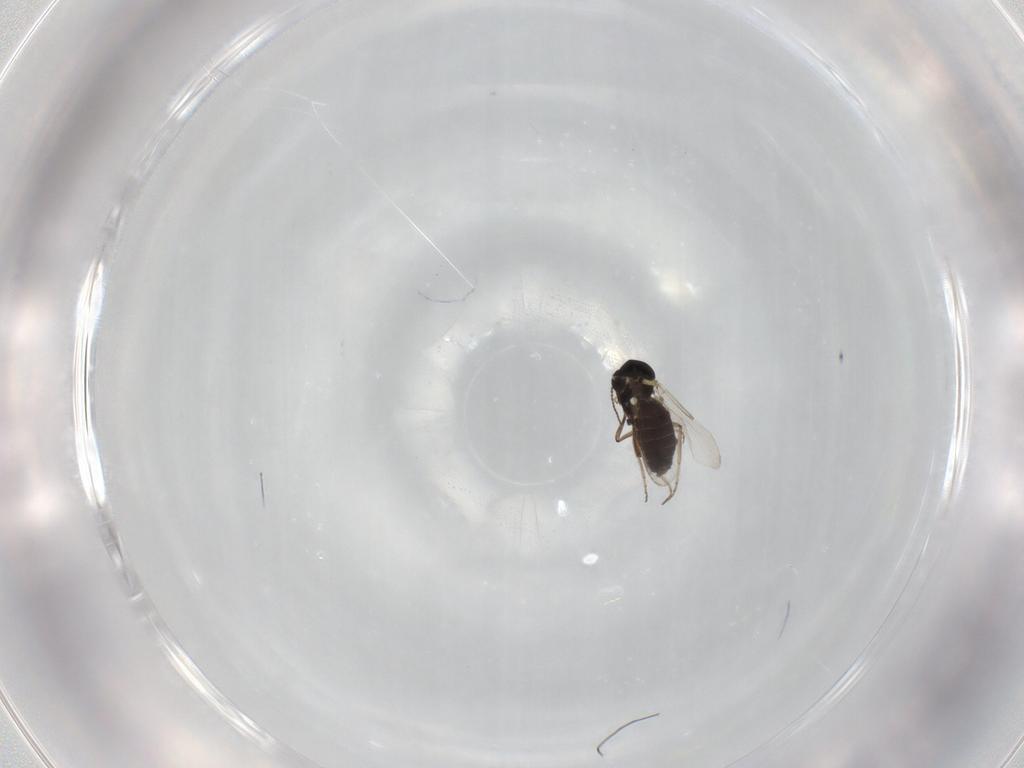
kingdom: Animalia
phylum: Arthropoda
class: Insecta
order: Diptera
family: Ceratopogonidae
